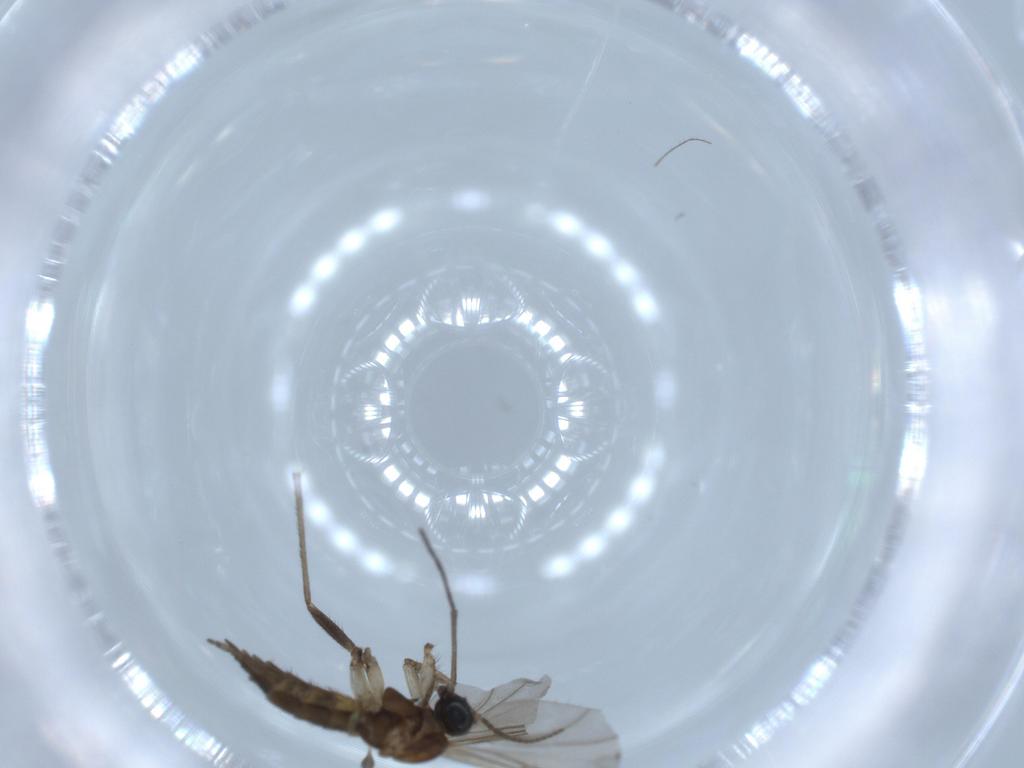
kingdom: Animalia
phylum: Arthropoda
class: Insecta
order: Diptera
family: Sciaridae
